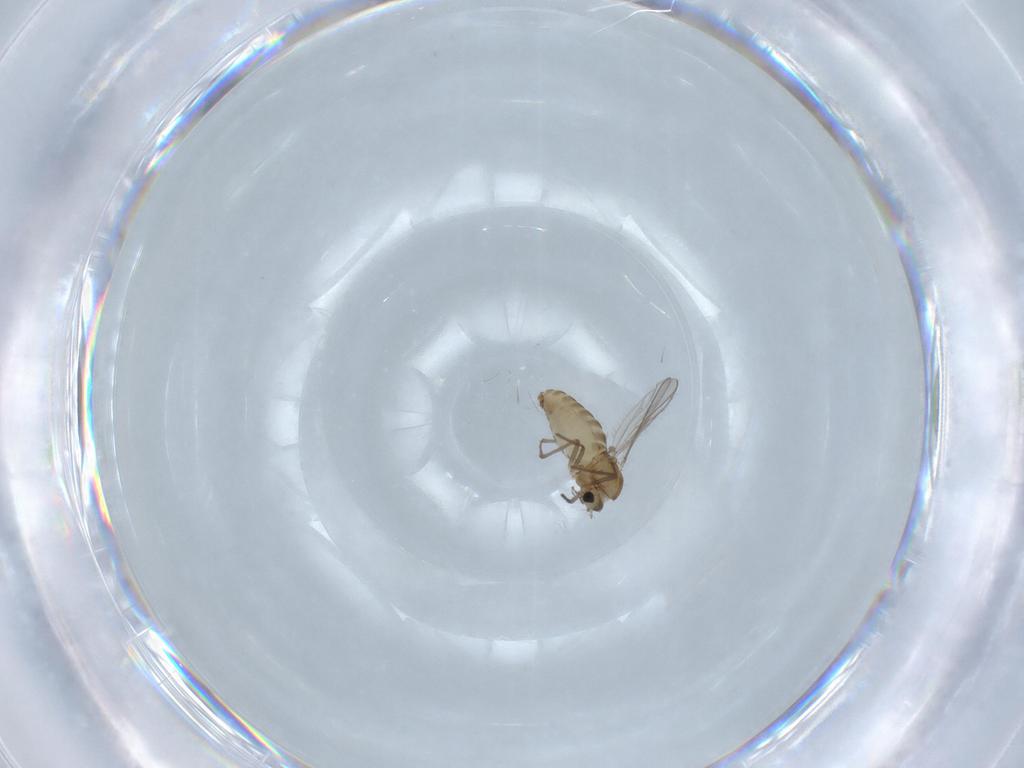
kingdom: Animalia
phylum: Arthropoda
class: Insecta
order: Diptera
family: Chironomidae
